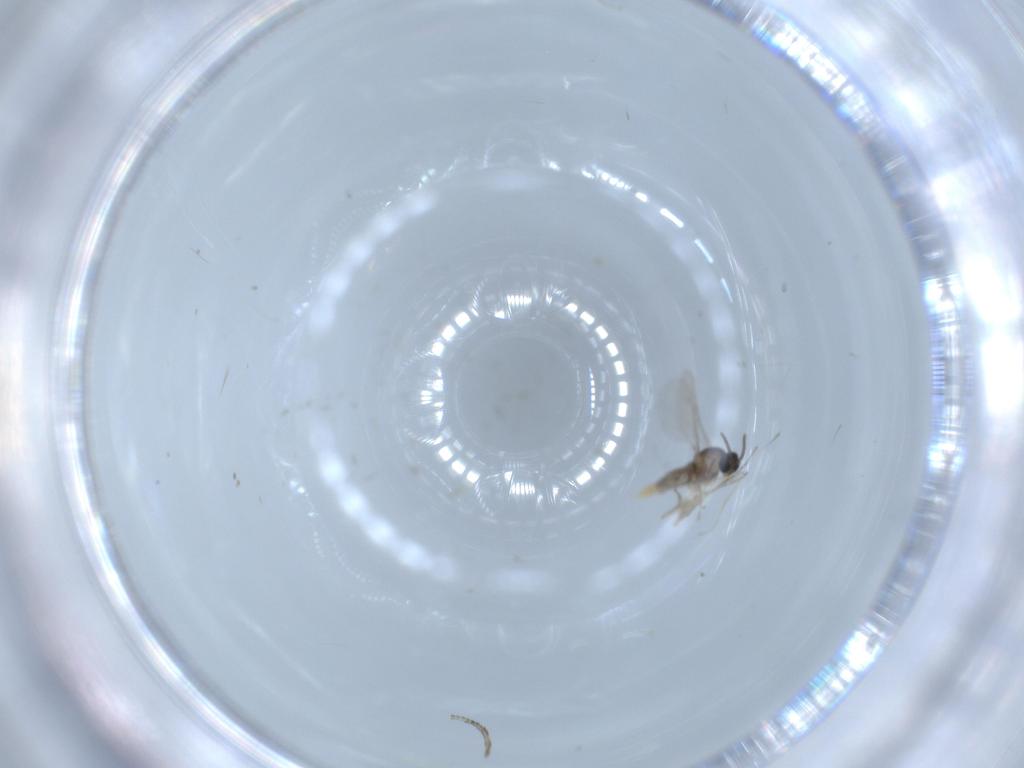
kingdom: Animalia
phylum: Arthropoda
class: Insecta
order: Diptera
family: Cecidomyiidae
